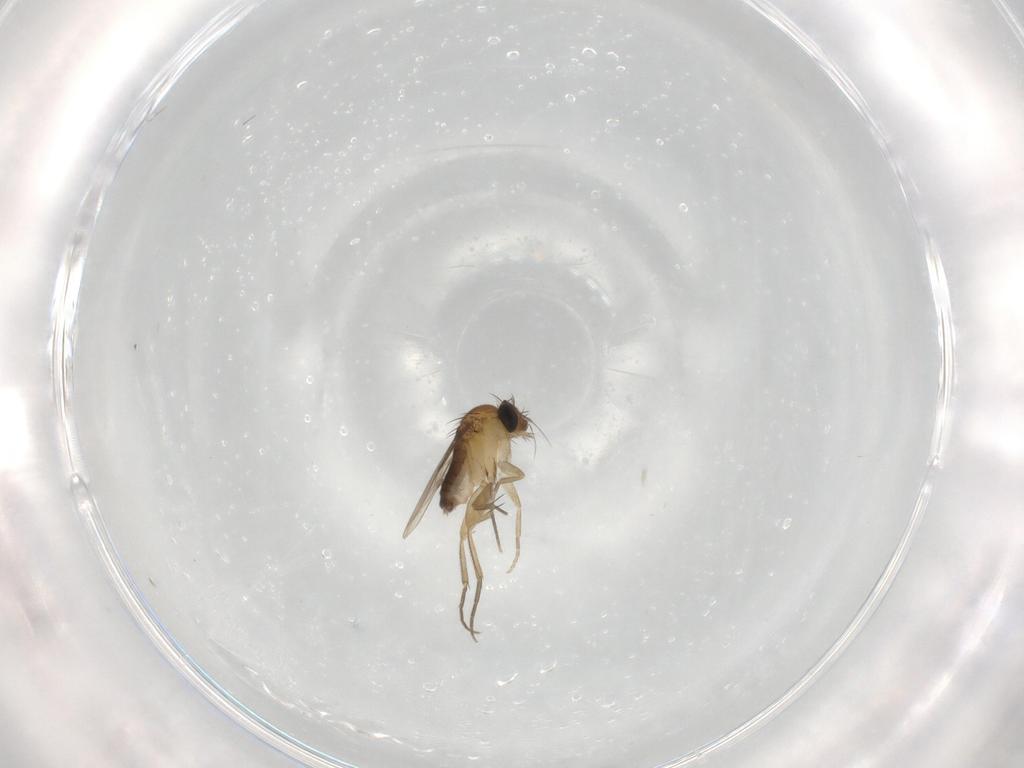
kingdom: Animalia
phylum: Arthropoda
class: Insecta
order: Diptera
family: Phoridae
